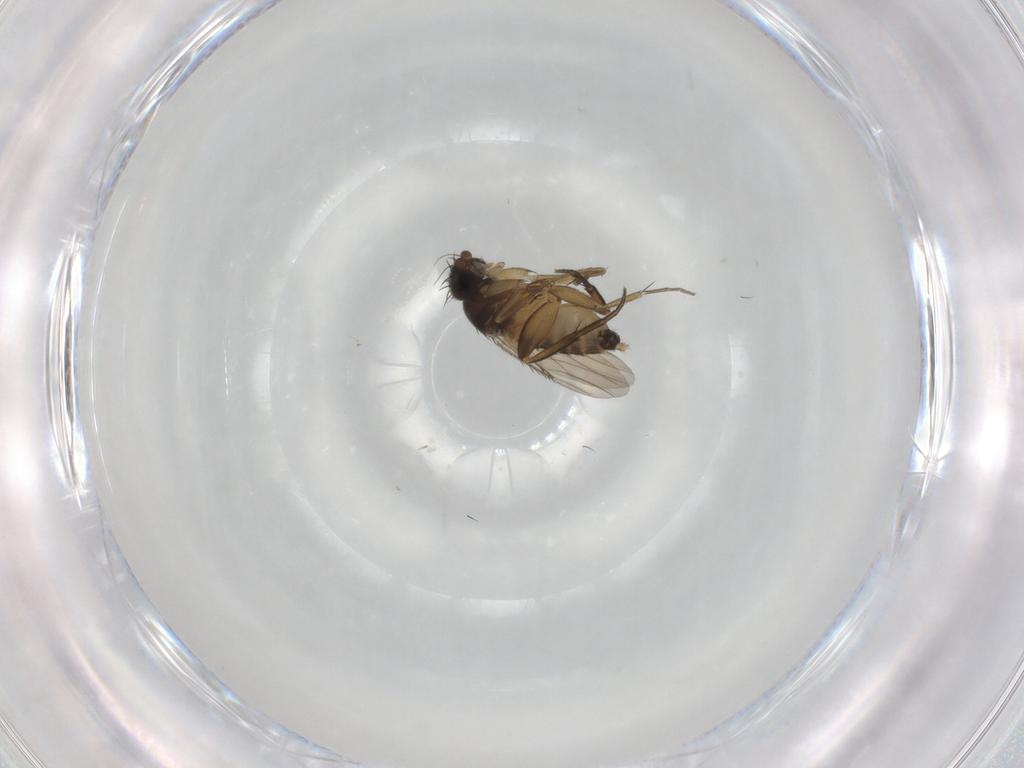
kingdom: Animalia
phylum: Arthropoda
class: Insecta
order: Diptera
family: Phoridae
